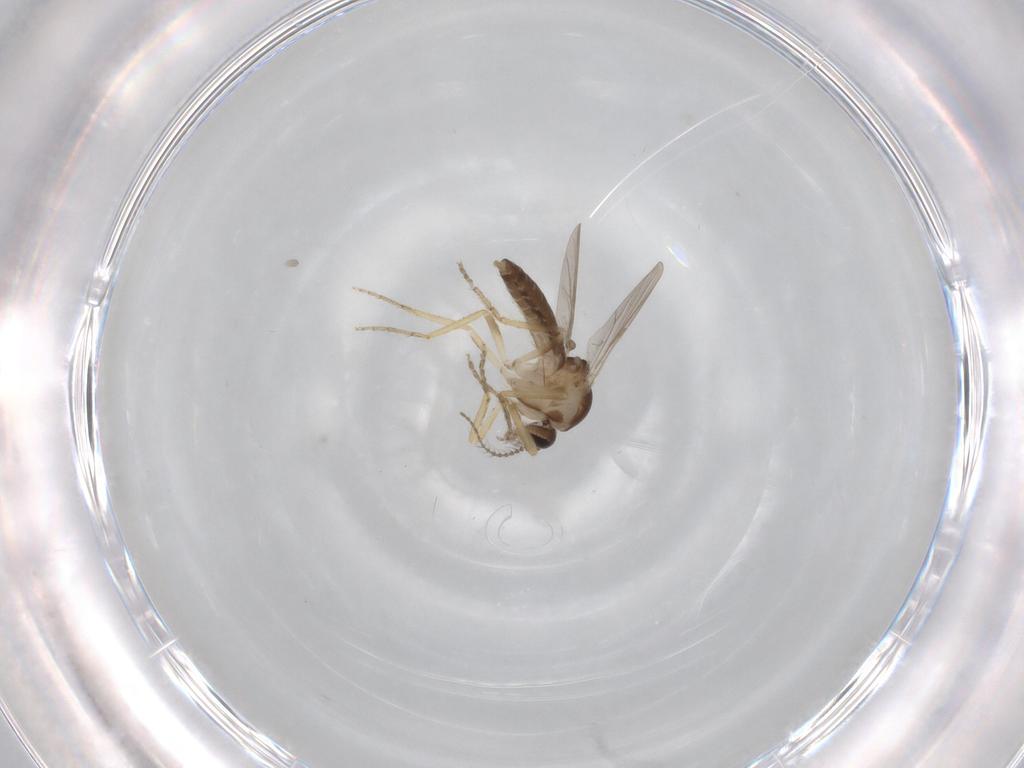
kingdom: Animalia
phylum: Arthropoda
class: Insecta
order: Diptera
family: Ceratopogonidae
